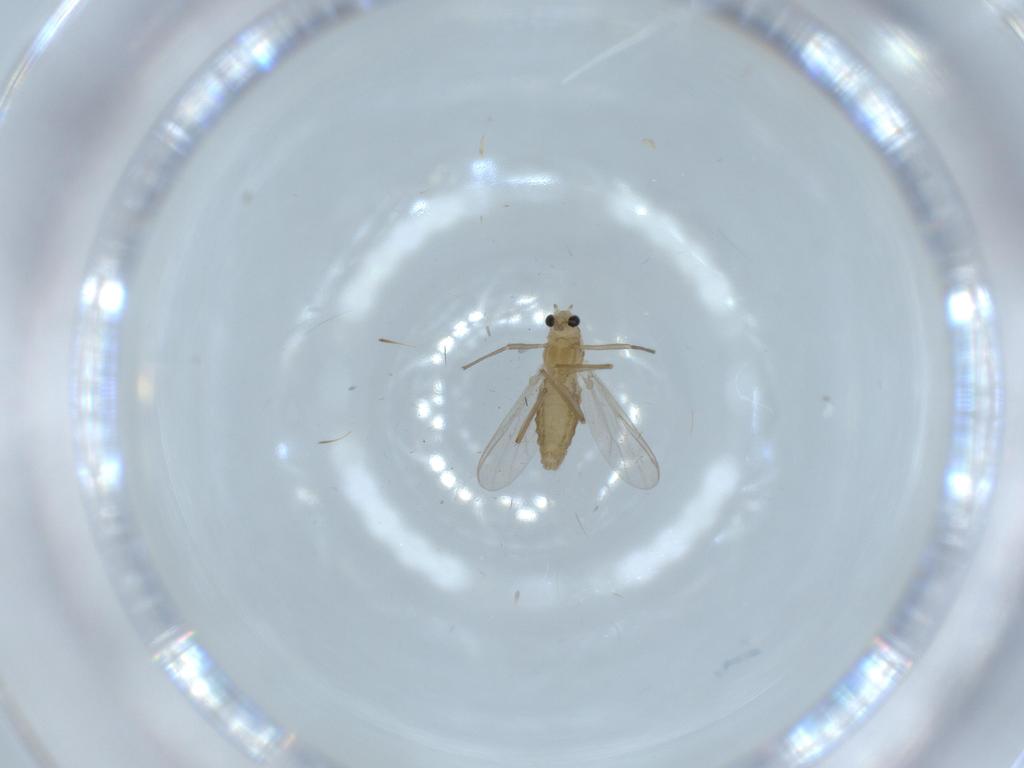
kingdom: Animalia
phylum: Arthropoda
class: Insecta
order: Diptera
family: Chironomidae
